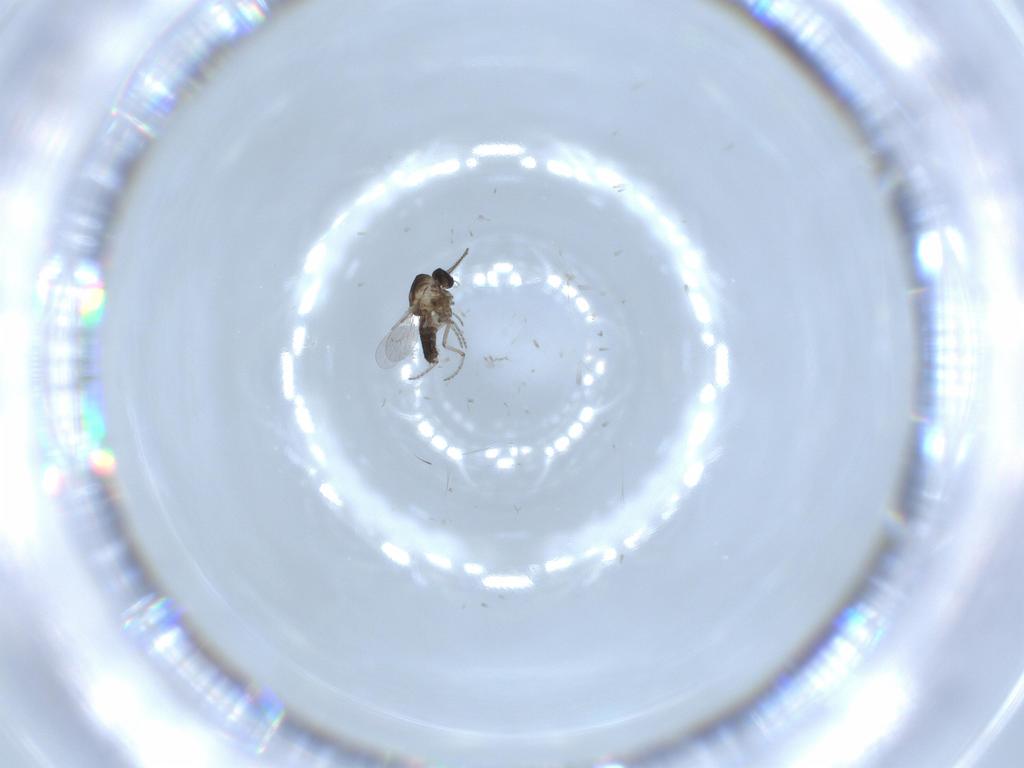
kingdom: Animalia
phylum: Arthropoda
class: Insecta
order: Diptera
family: Ceratopogonidae
